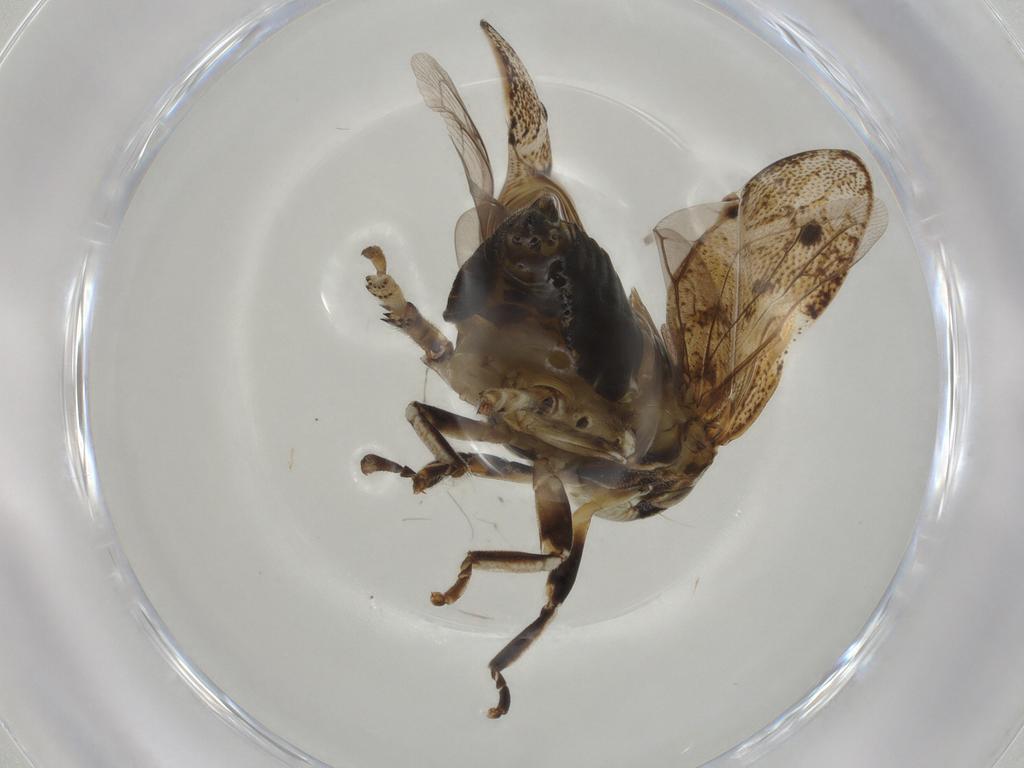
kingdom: Animalia
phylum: Arthropoda
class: Insecta
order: Hemiptera
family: Clastopteridae
